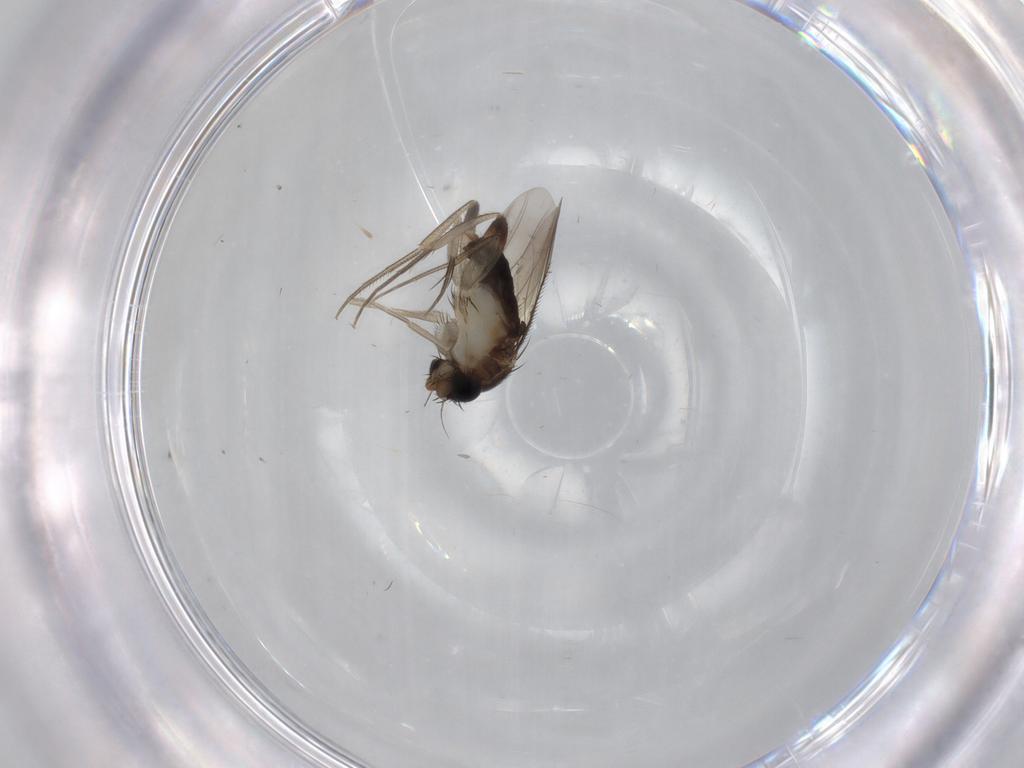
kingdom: Animalia
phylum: Arthropoda
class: Insecta
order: Diptera
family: Phoridae
